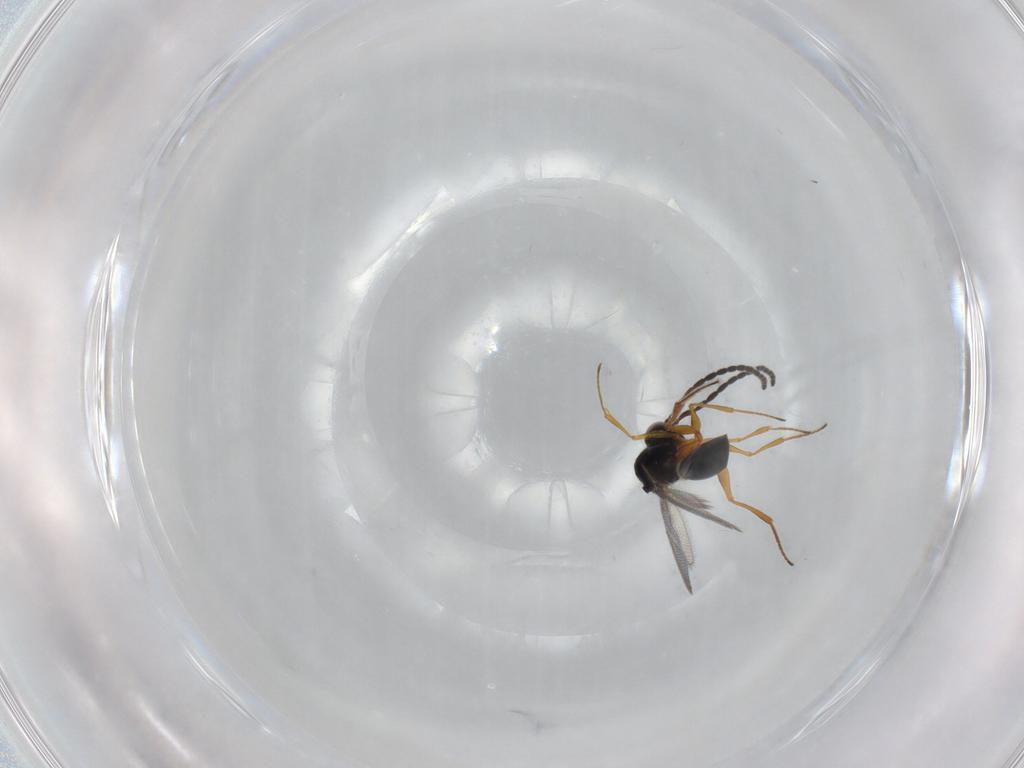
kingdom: Animalia
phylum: Arthropoda
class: Insecta
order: Hymenoptera
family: Figitidae
